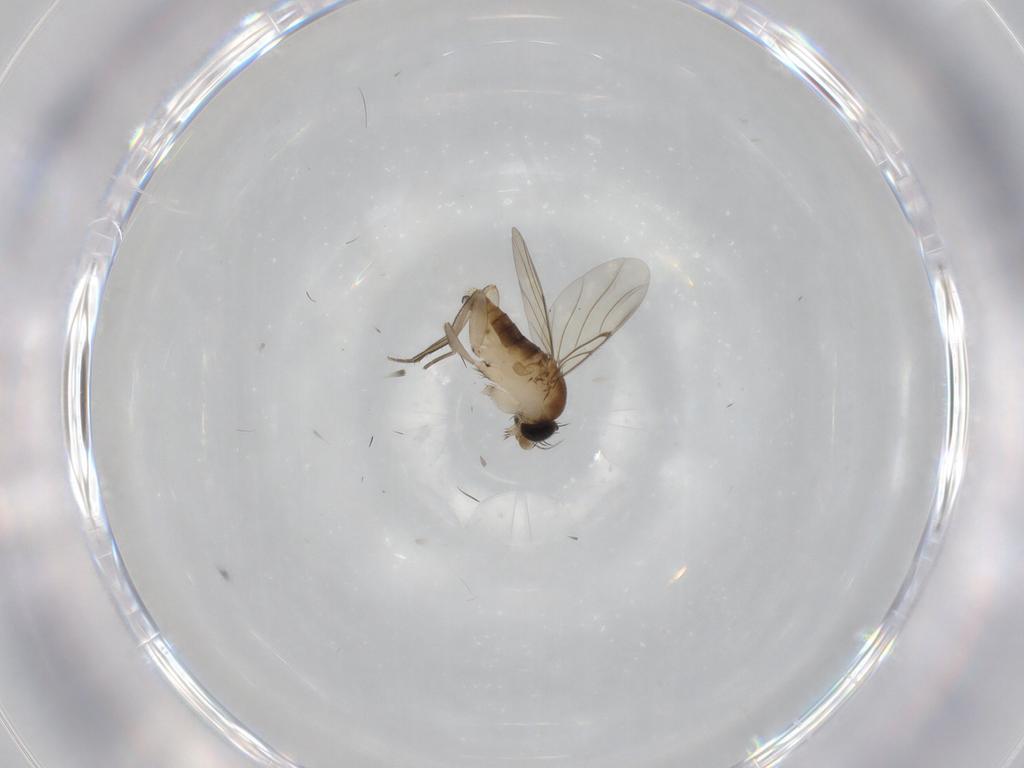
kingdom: Animalia
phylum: Arthropoda
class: Insecta
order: Diptera
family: Phoridae
